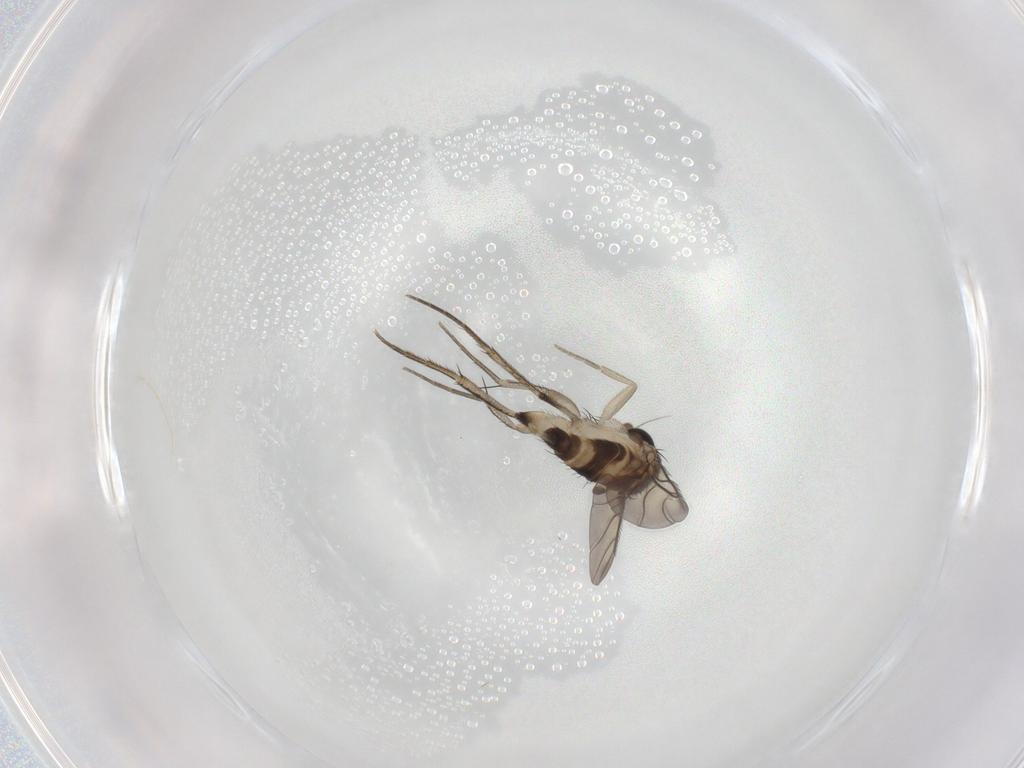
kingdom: Animalia
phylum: Arthropoda
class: Insecta
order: Diptera
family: Phoridae
